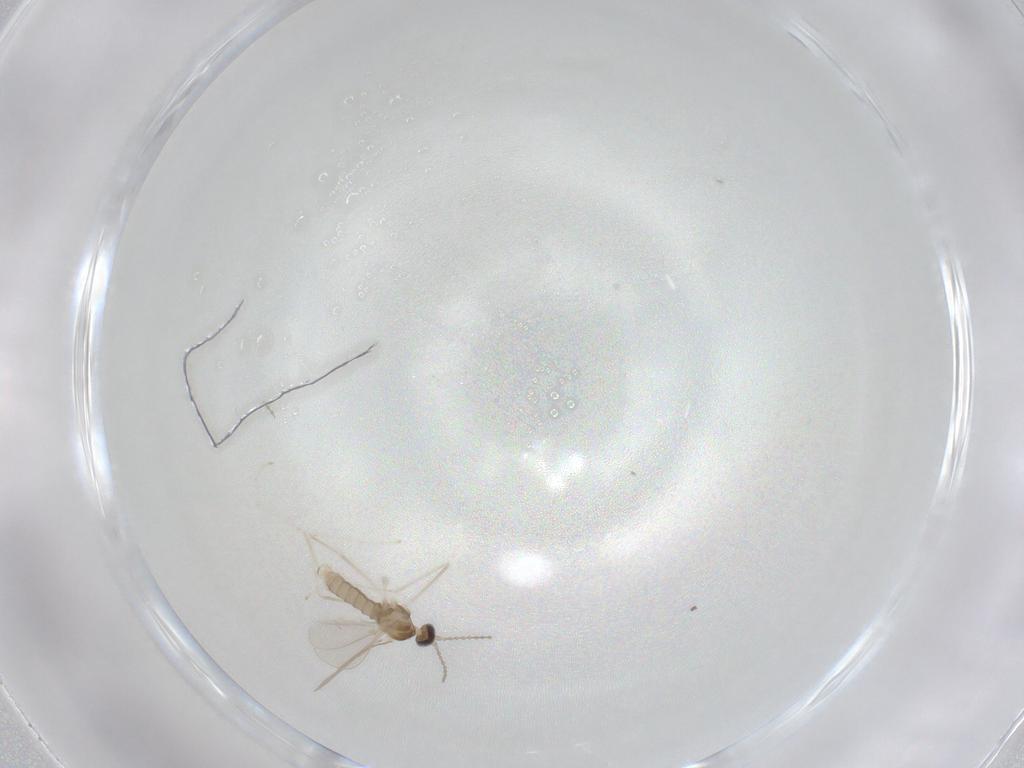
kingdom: Animalia
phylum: Arthropoda
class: Insecta
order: Diptera
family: Cecidomyiidae
